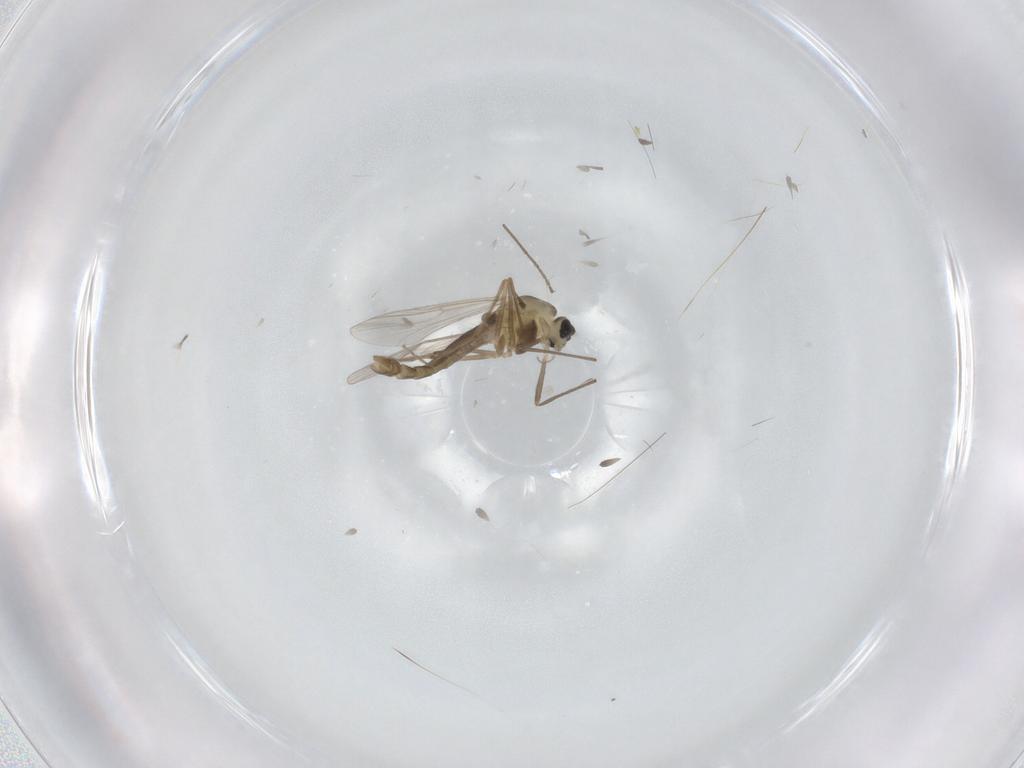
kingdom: Animalia
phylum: Arthropoda
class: Insecta
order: Diptera
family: Chironomidae
